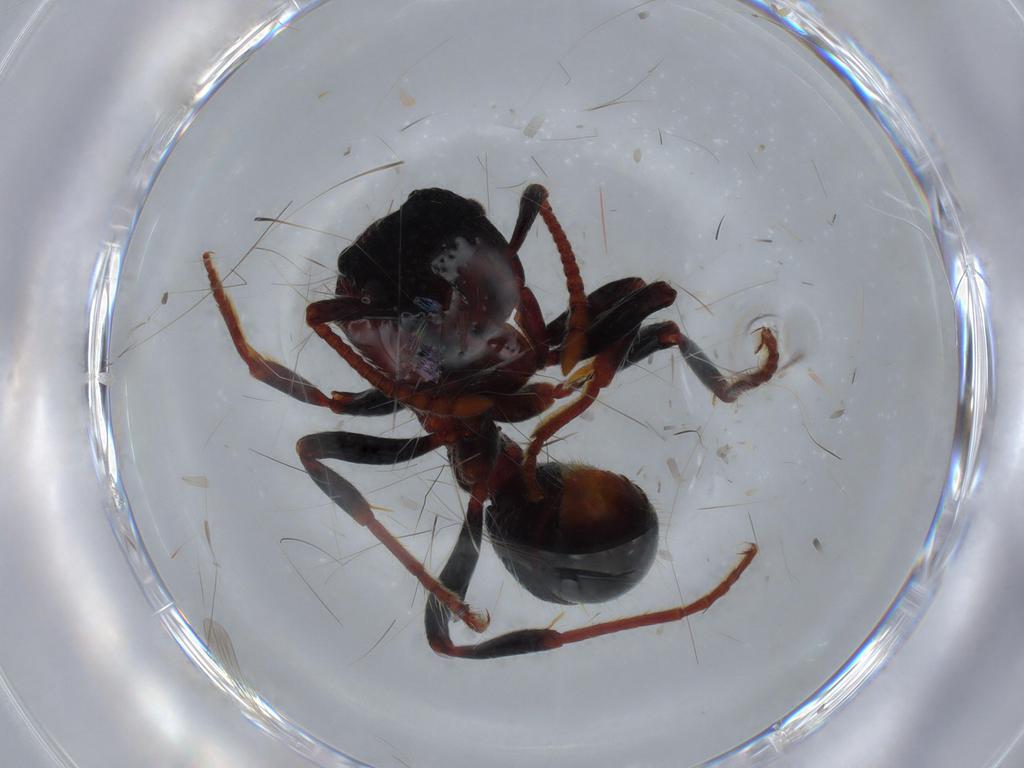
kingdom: Animalia
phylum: Arthropoda
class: Insecta
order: Hymenoptera
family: Formicidae
